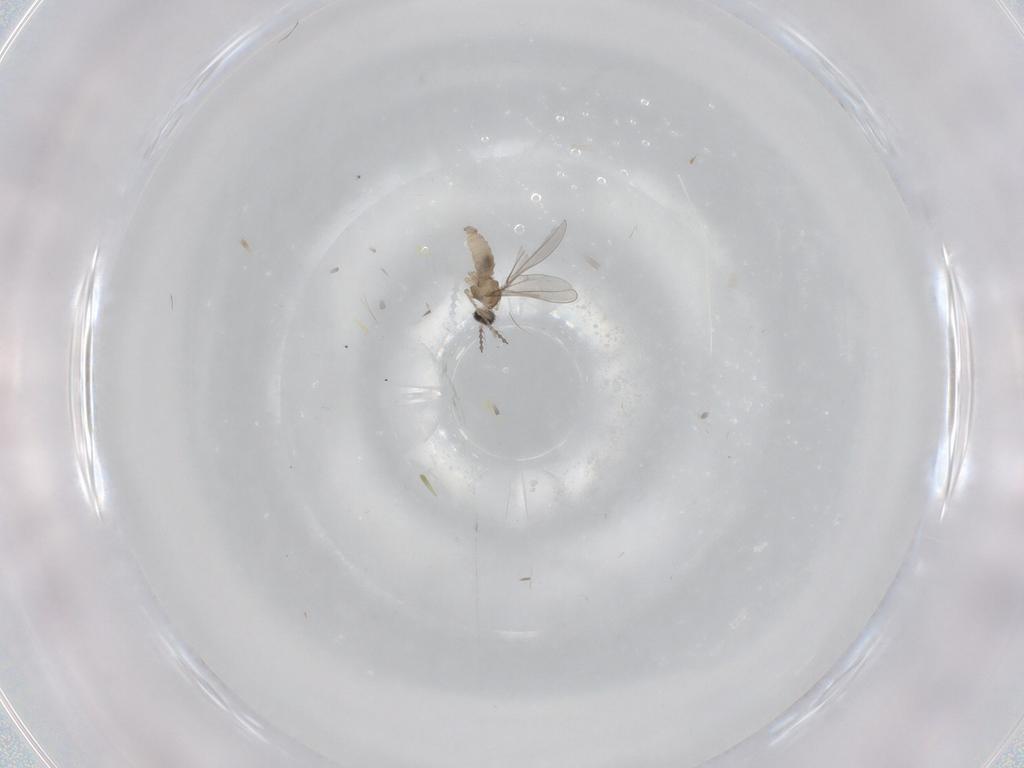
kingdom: Animalia
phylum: Arthropoda
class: Insecta
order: Diptera
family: Cecidomyiidae
